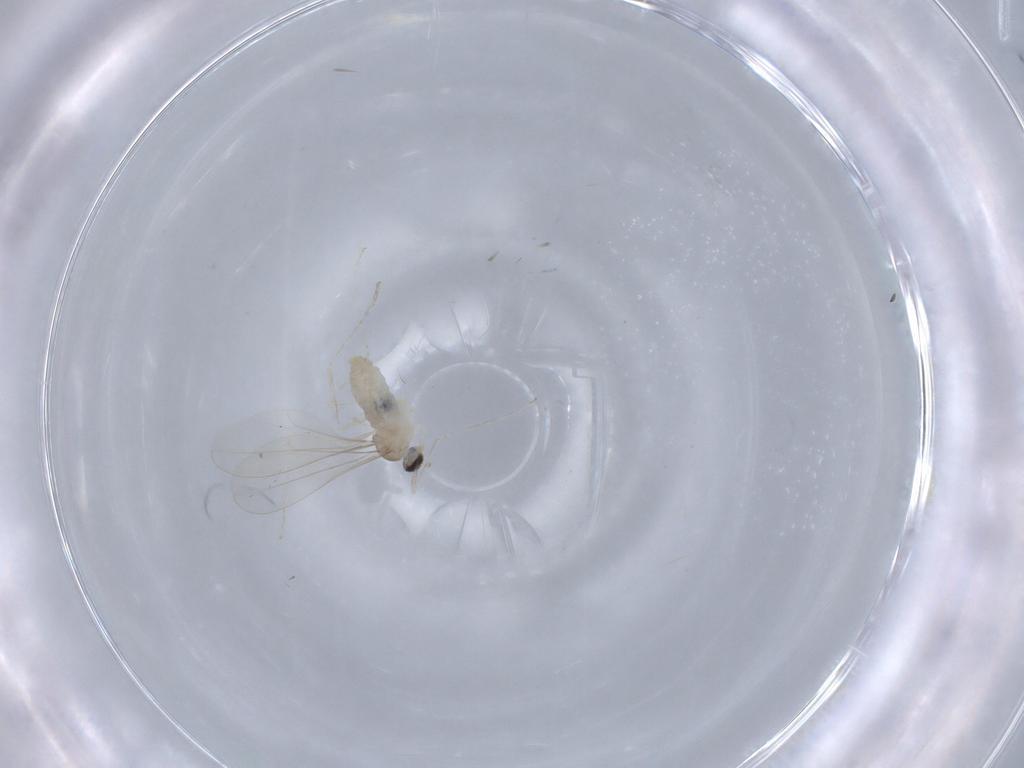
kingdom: Animalia
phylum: Arthropoda
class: Insecta
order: Diptera
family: Cecidomyiidae
